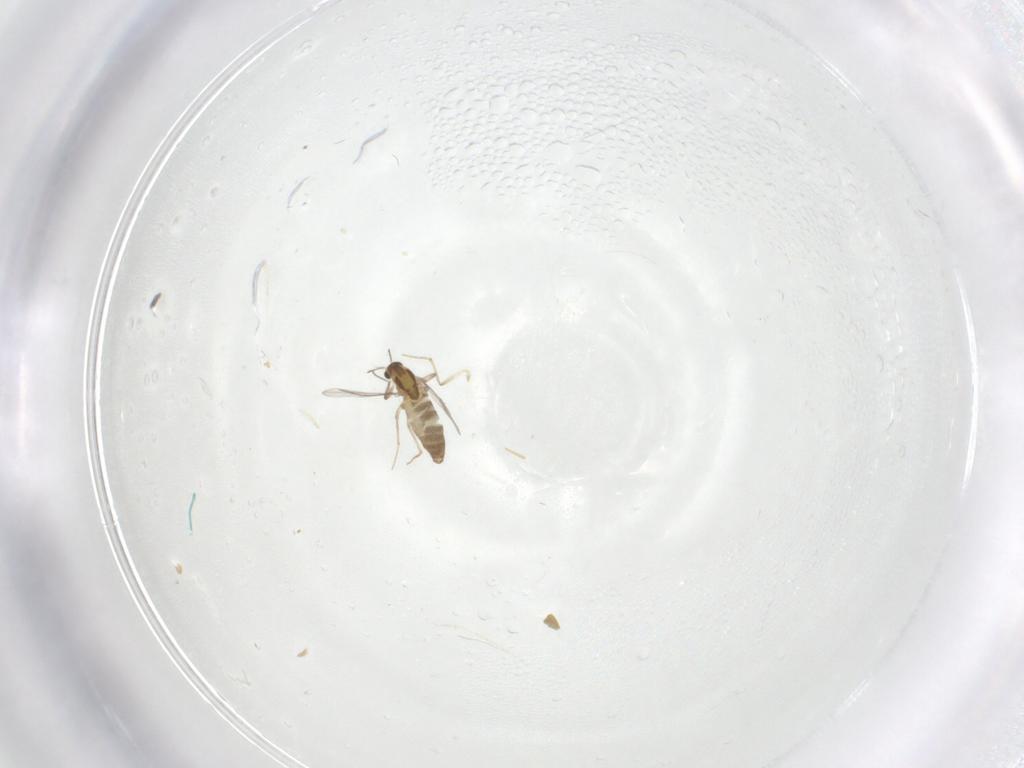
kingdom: Animalia
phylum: Arthropoda
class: Insecta
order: Diptera
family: Chironomidae
